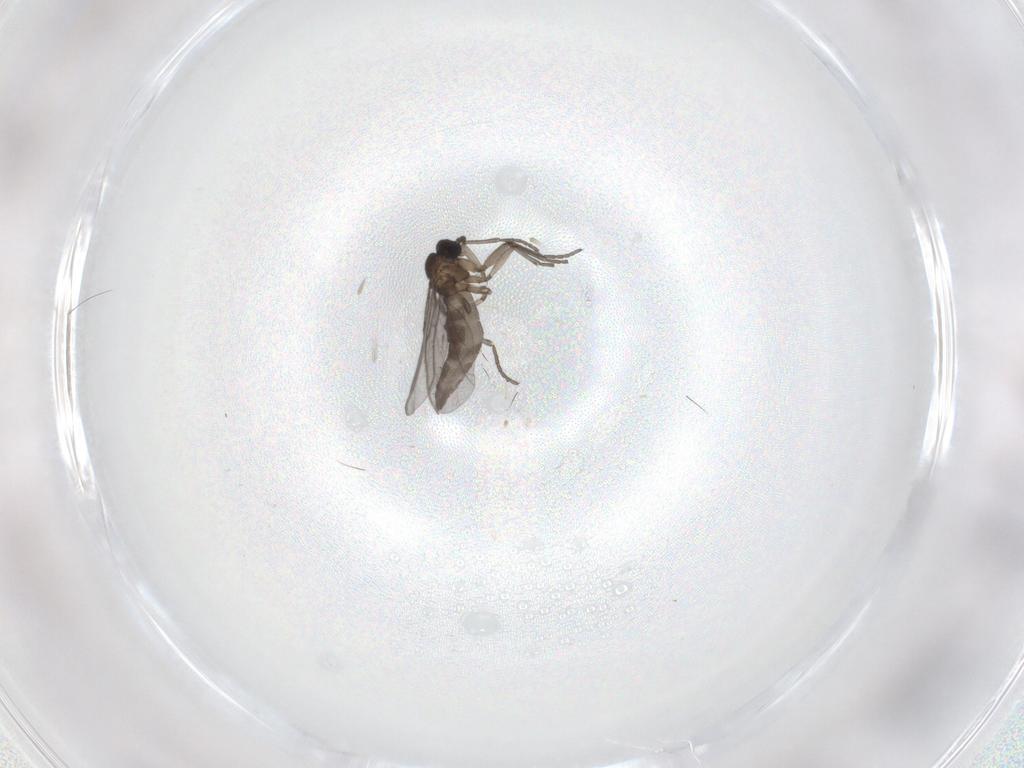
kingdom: Animalia
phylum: Arthropoda
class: Insecta
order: Diptera
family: Sciaridae
